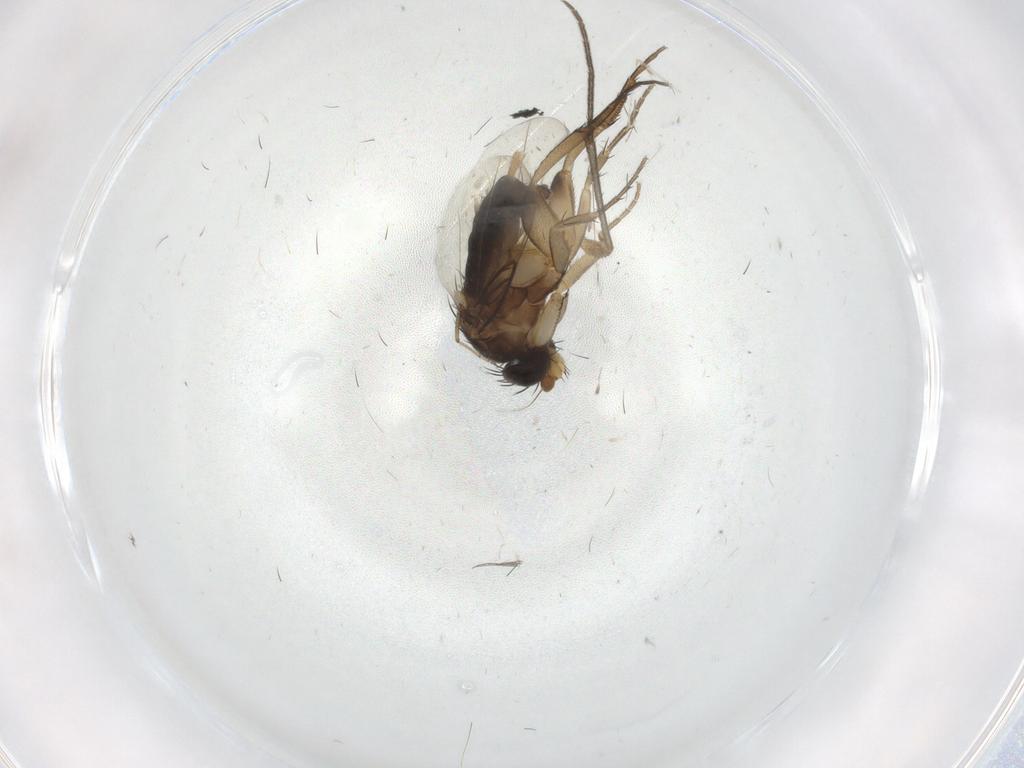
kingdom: Animalia
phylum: Arthropoda
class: Insecta
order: Diptera
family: Phoridae
